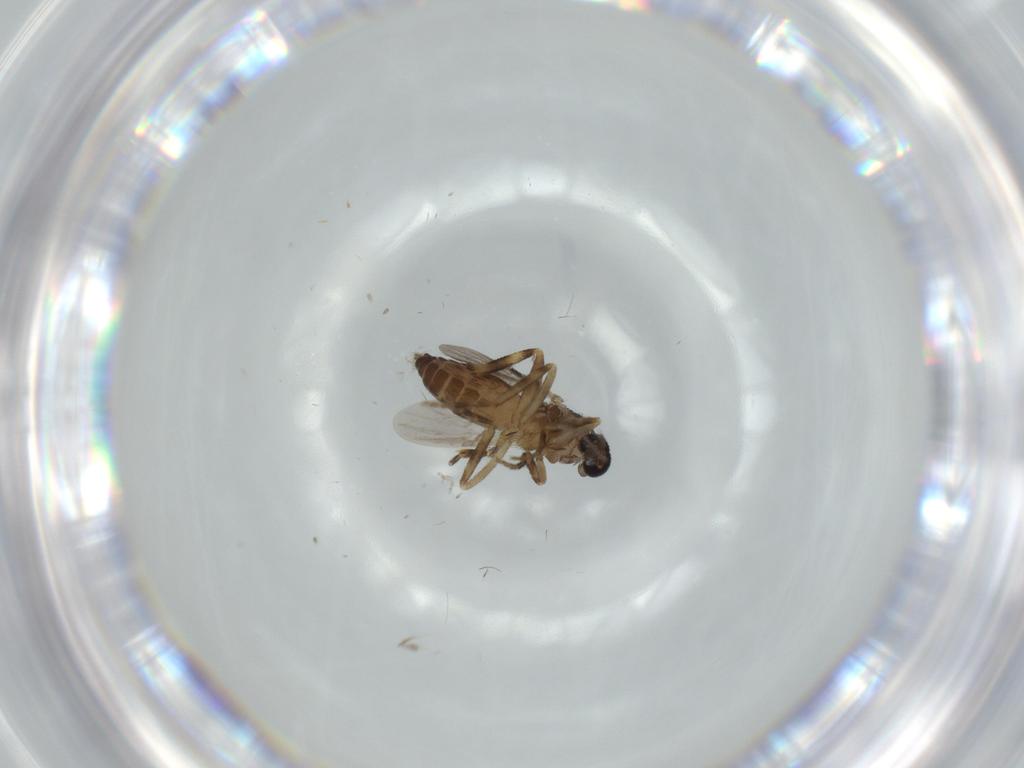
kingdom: Animalia
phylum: Arthropoda
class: Insecta
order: Diptera
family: Ceratopogonidae
